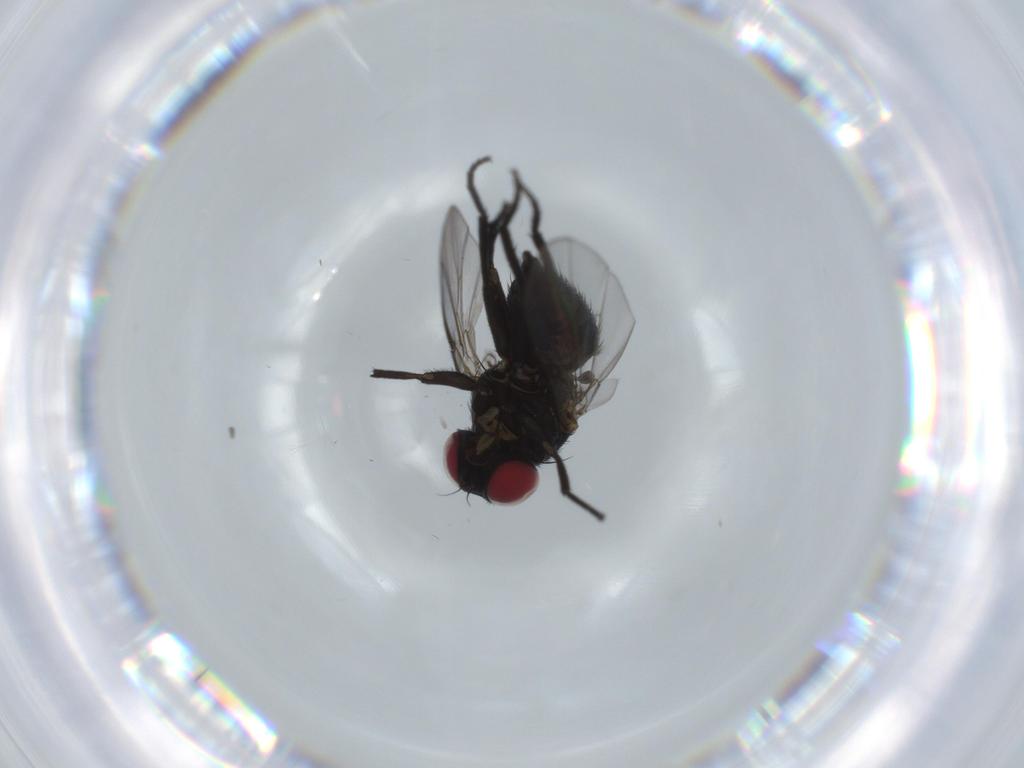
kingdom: Animalia
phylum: Arthropoda
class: Insecta
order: Diptera
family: Agromyzidae
